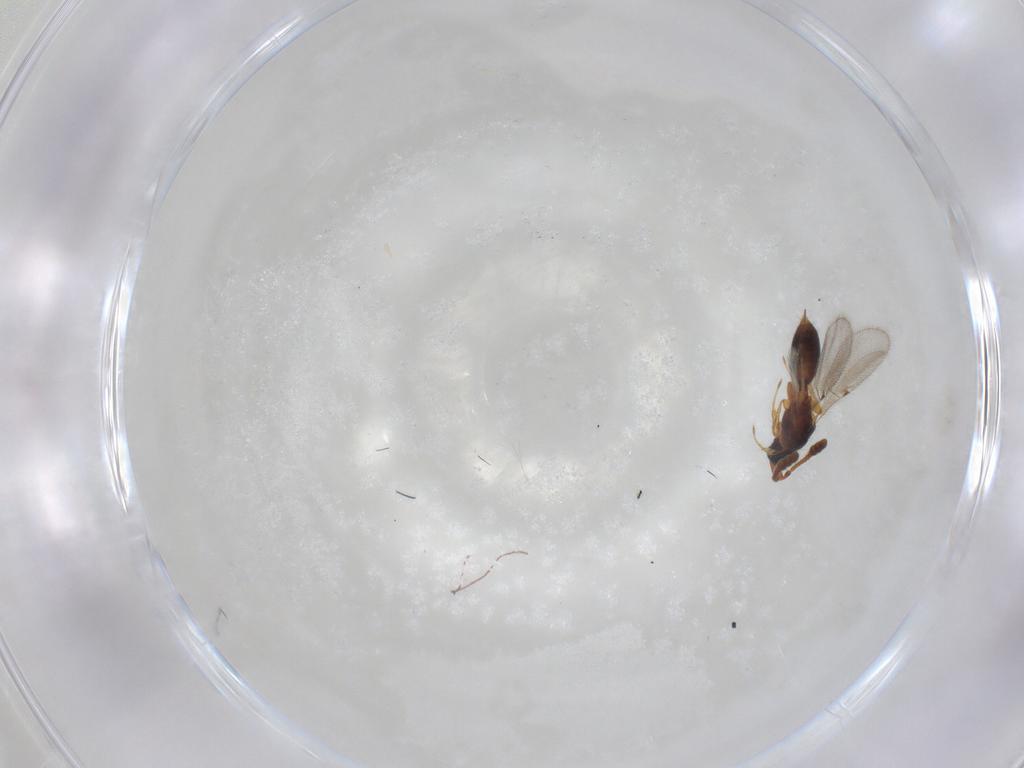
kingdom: Animalia
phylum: Arthropoda
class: Insecta
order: Hymenoptera
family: Diapriidae
